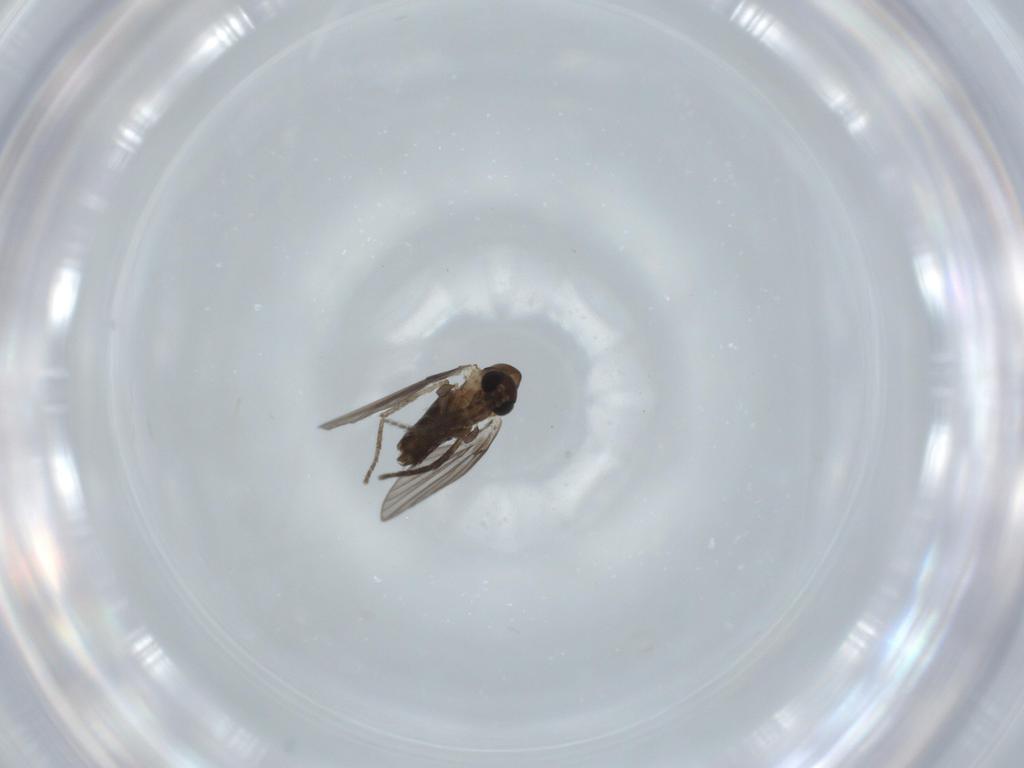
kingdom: Animalia
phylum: Arthropoda
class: Insecta
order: Diptera
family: Psychodidae
